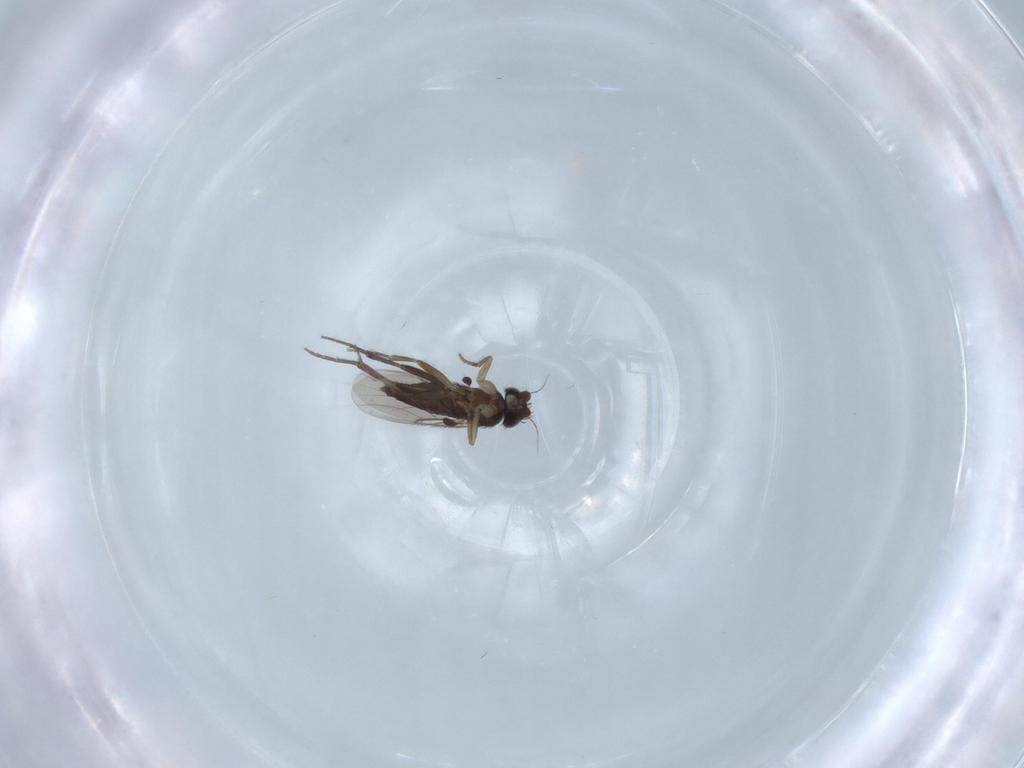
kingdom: Animalia
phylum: Arthropoda
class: Insecta
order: Diptera
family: Phoridae
